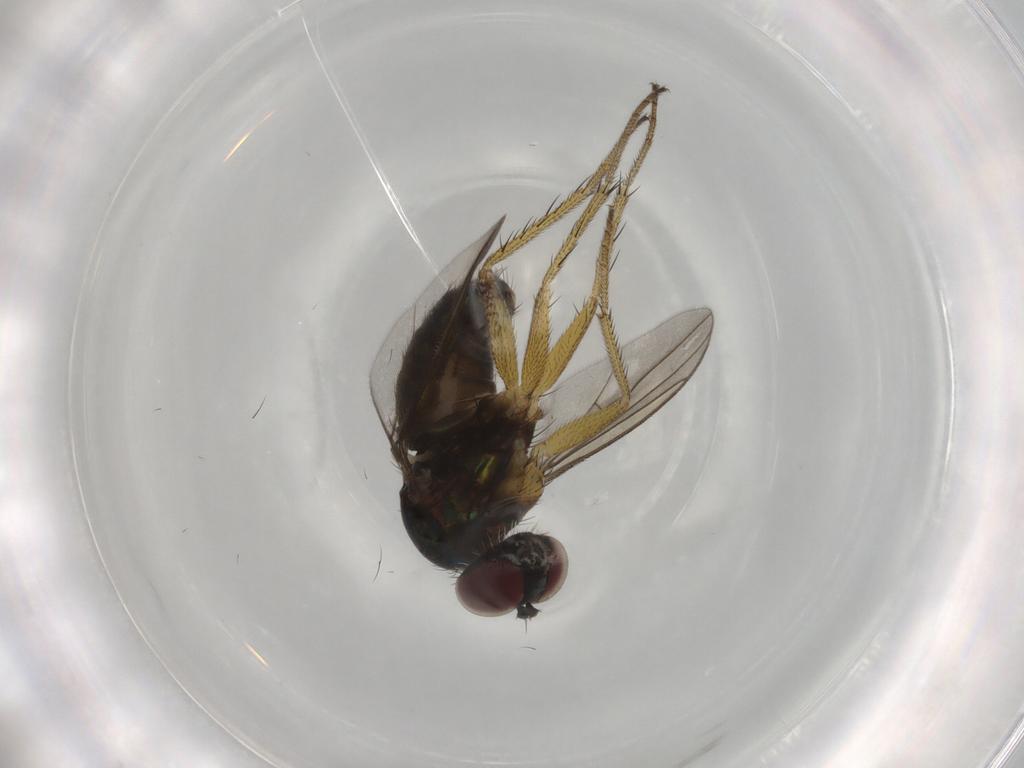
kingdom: Animalia
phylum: Arthropoda
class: Insecta
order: Diptera
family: Dolichopodidae
